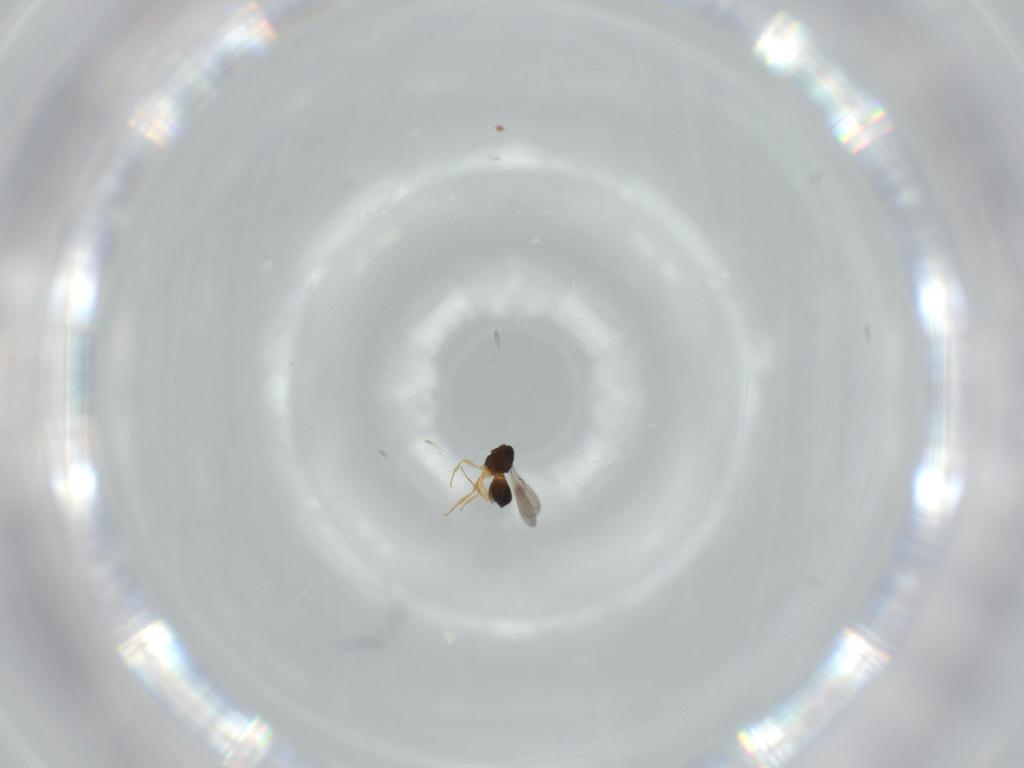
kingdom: Animalia
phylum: Arthropoda
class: Insecta
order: Hymenoptera
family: Scelionidae
